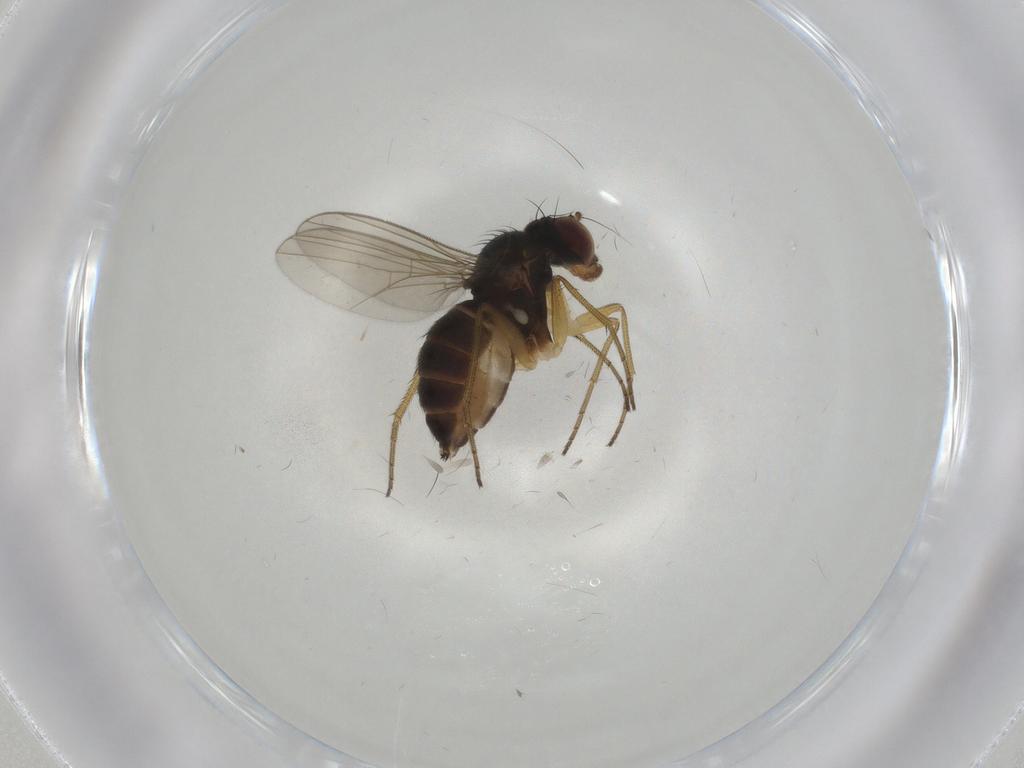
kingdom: Animalia
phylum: Arthropoda
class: Insecta
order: Diptera
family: Dolichopodidae
